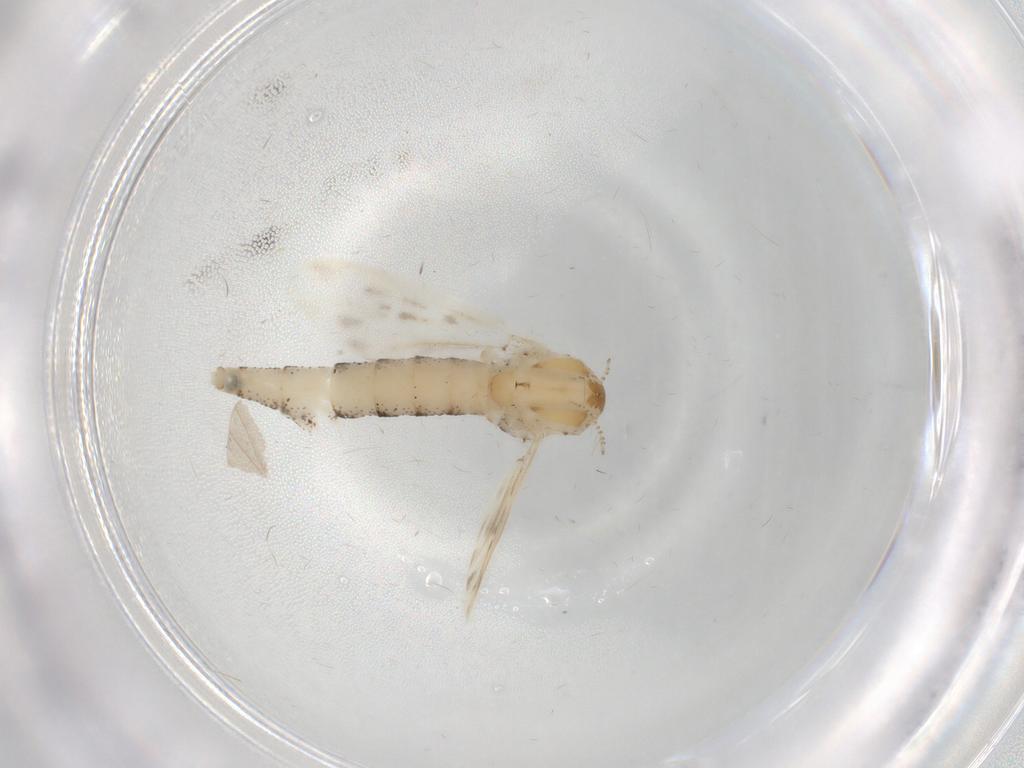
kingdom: Animalia
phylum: Arthropoda
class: Insecta
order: Diptera
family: Chaoboridae
